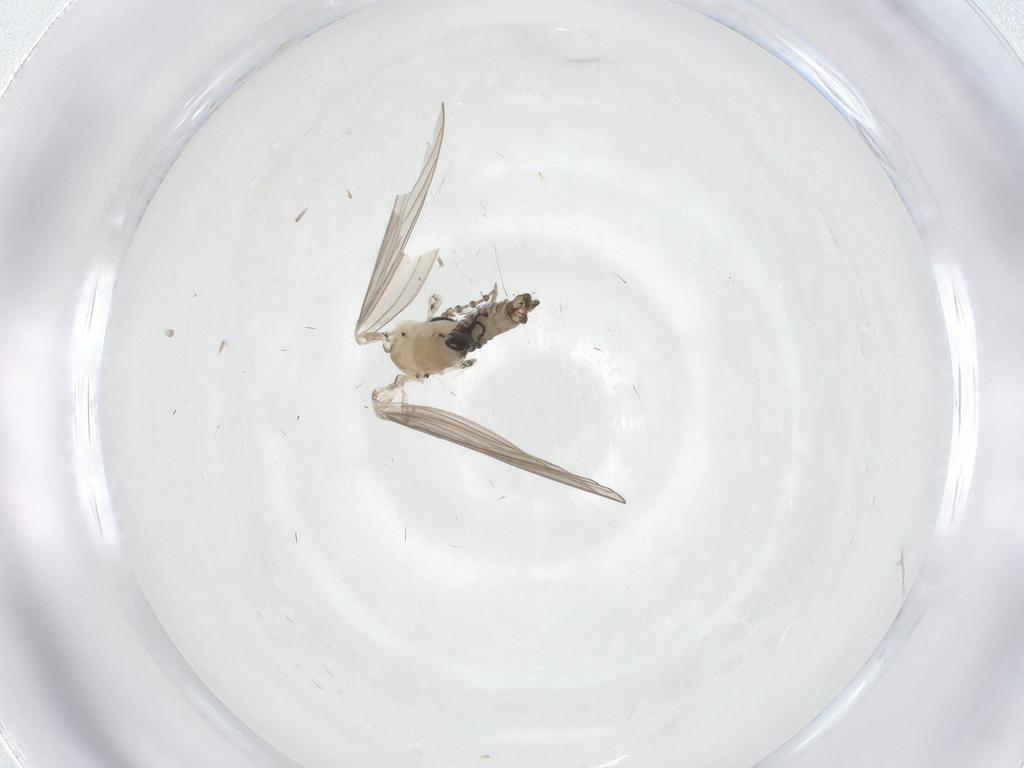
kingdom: Animalia
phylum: Arthropoda
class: Insecta
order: Diptera
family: Psychodidae
